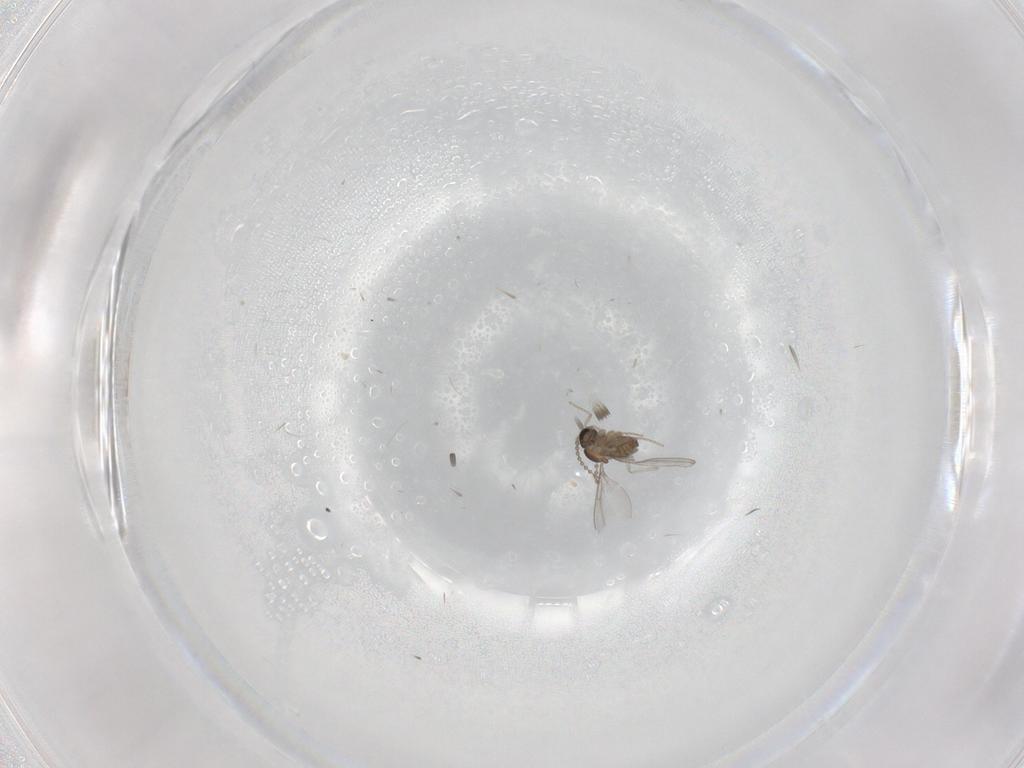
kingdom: Animalia
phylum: Arthropoda
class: Insecta
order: Diptera
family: Cecidomyiidae
